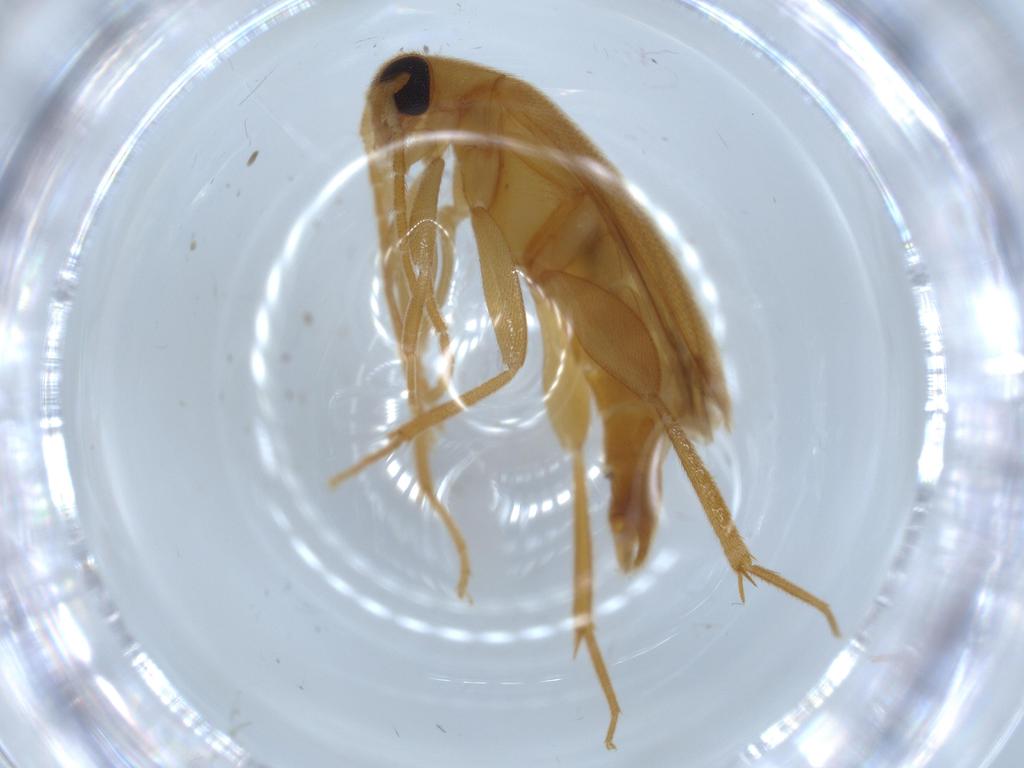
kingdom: Animalia
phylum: Arthropoda
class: Insecta
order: Coleoptera
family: Scraptiidae
